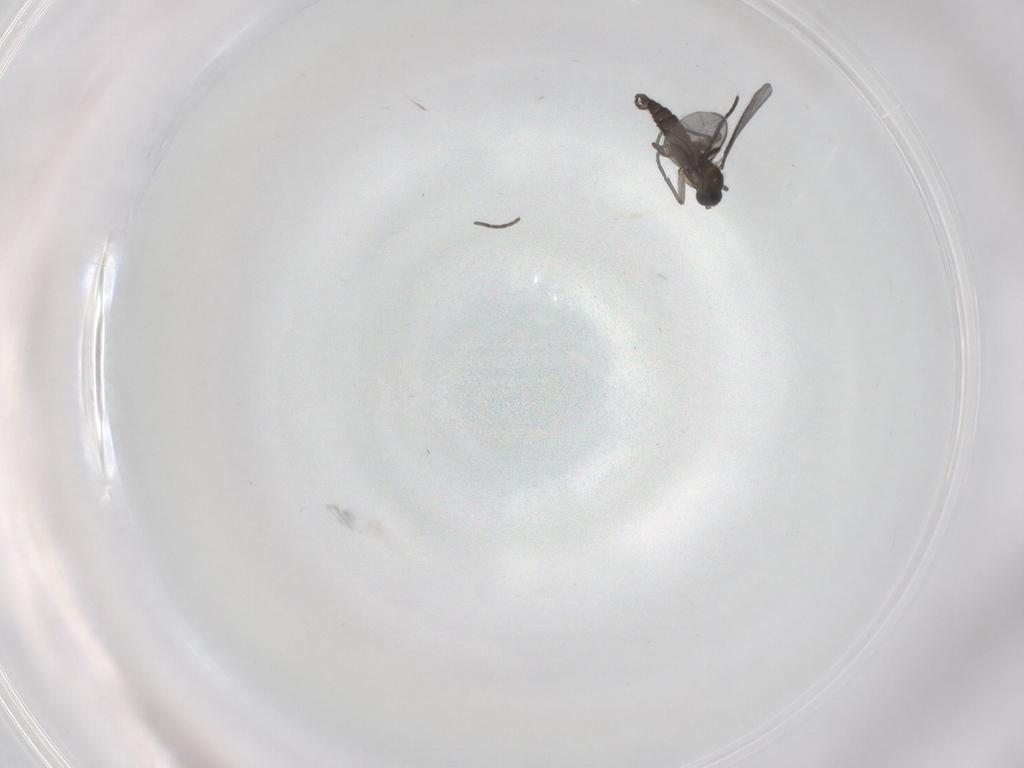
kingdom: Animalia
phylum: Arthropoda
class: Insecta
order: Diptera
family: Cecidomyiidae
